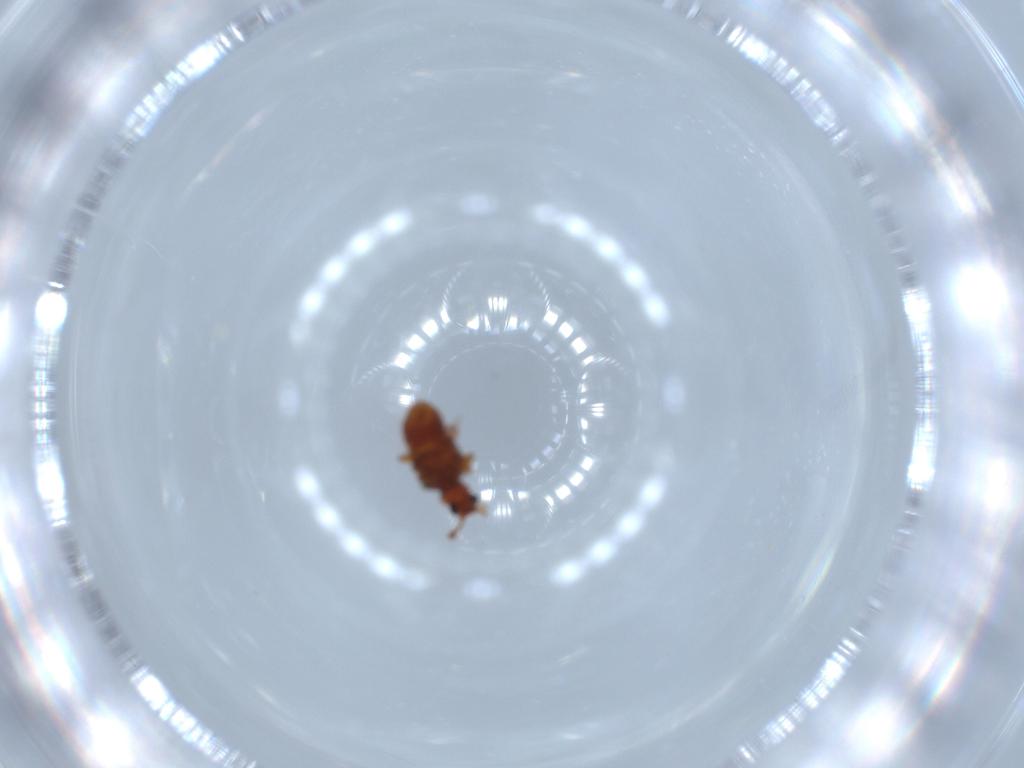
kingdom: Animalia
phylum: Arthropoda
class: Insecta
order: Coleoptera
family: Staphylinidae
